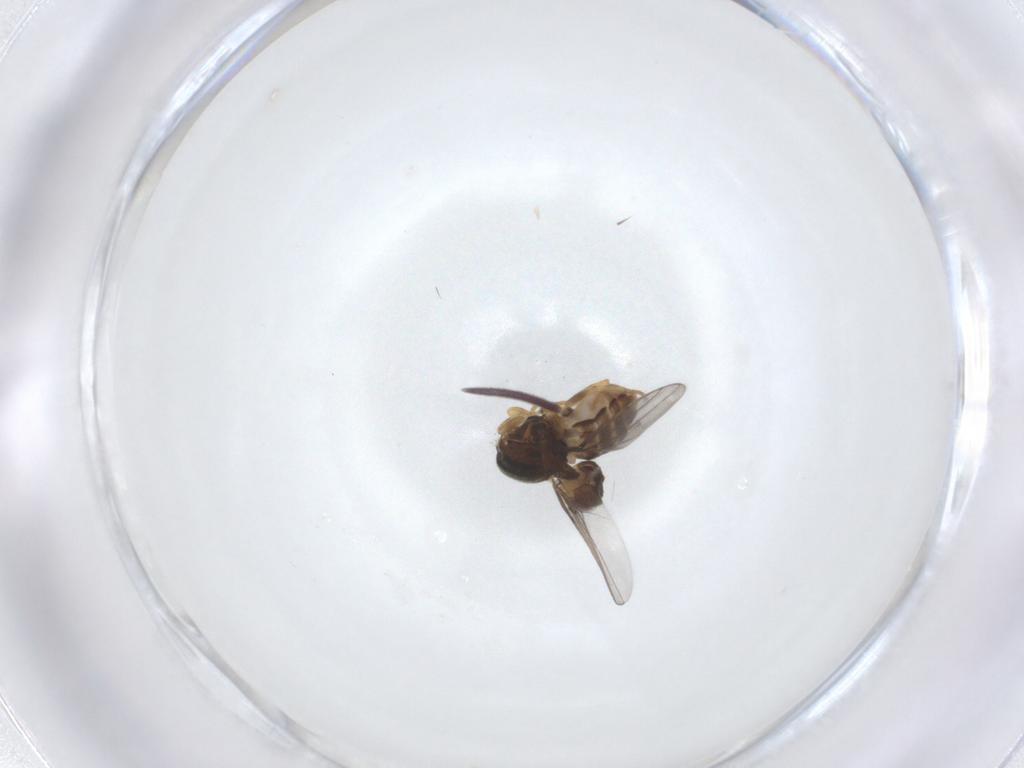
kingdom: Animalia
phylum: Arthropoda
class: Insecta
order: Diptera
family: Chloropidae
